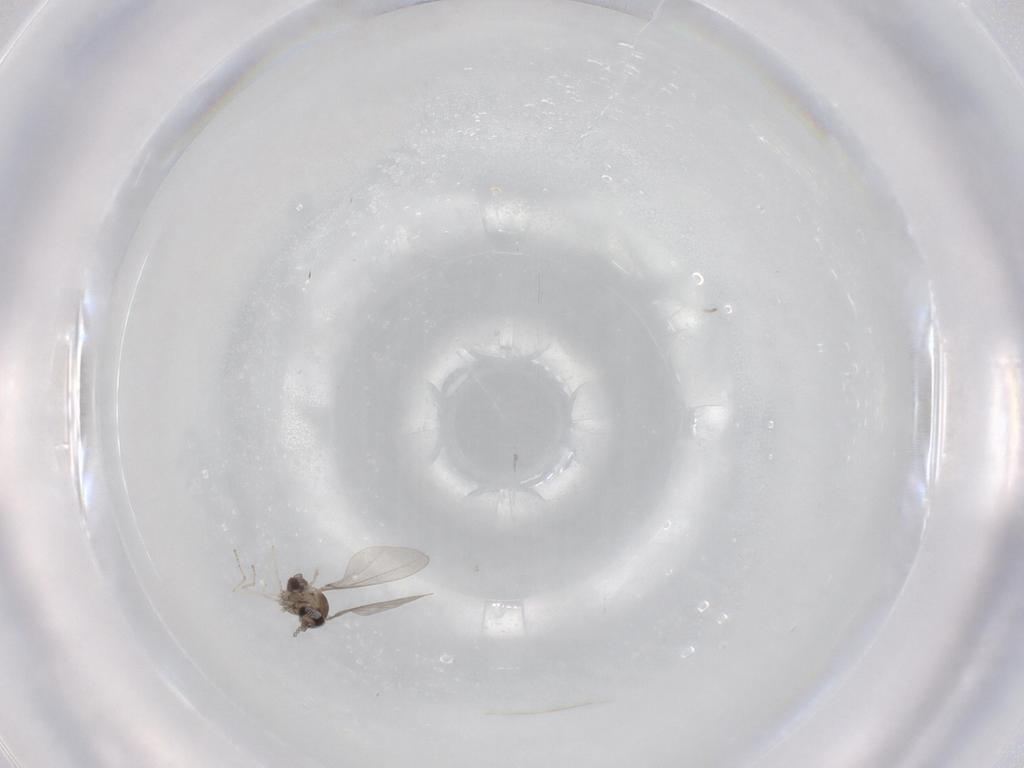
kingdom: Animalia
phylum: Arthropoda
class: Insecta
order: Diptera
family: Cecidomyiidae
